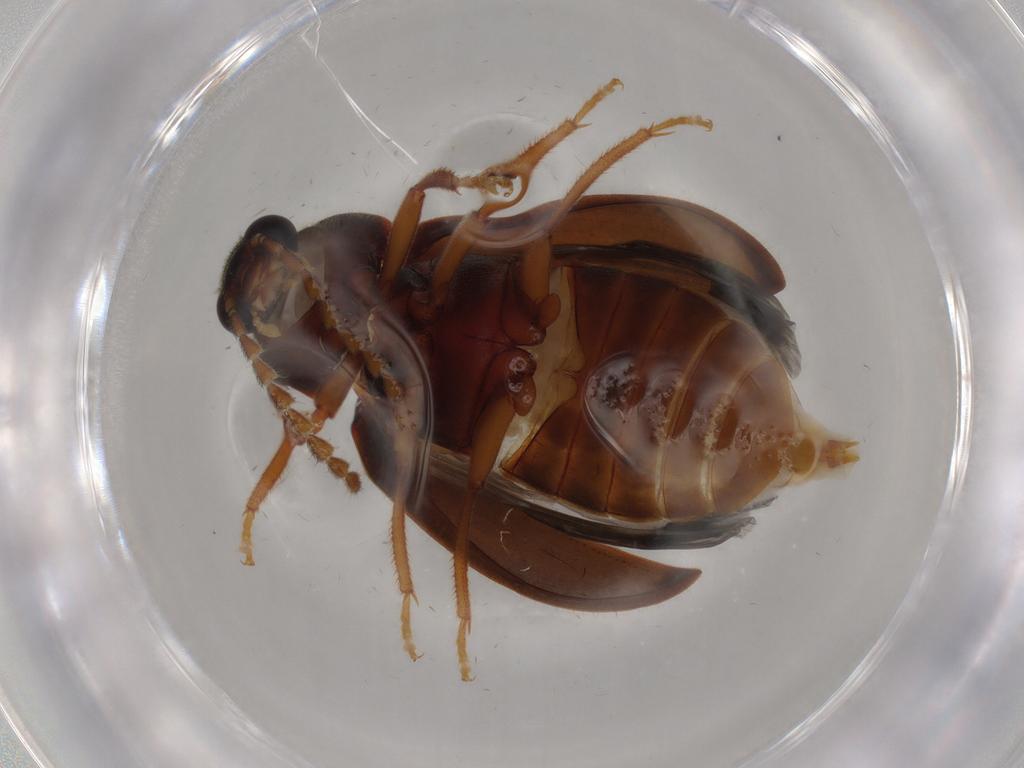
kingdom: Animalia
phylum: Arthropoda
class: Insecta
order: Coleoptera
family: Ptilodactylidae
